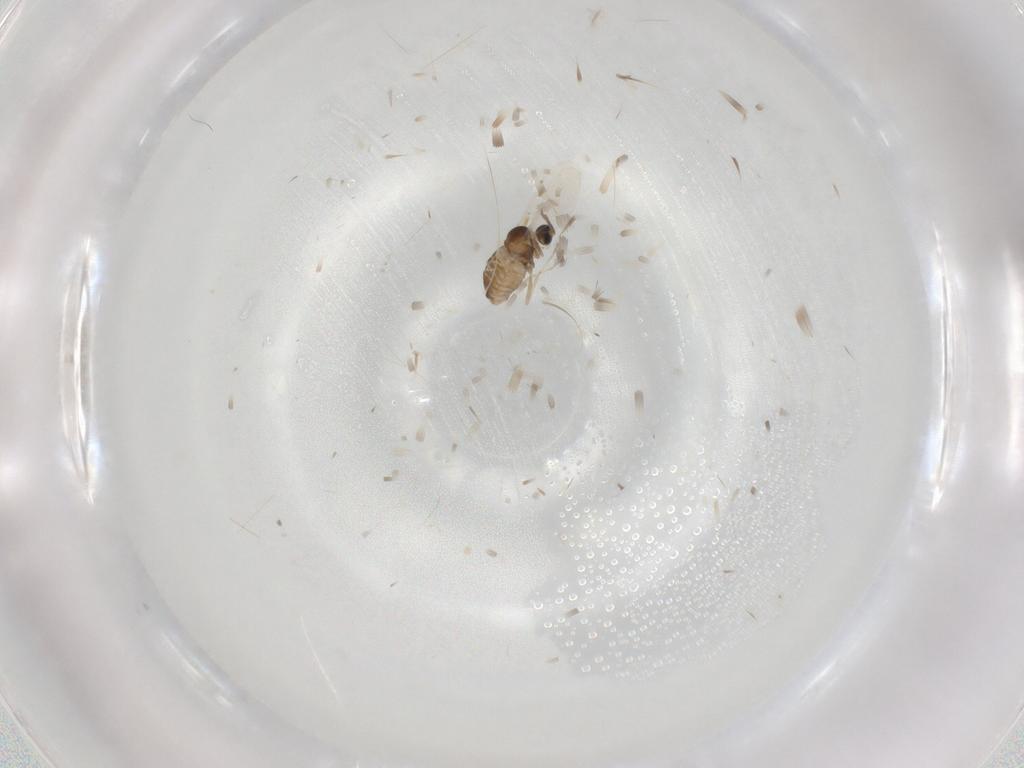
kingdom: Animalia
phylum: Arthropoda
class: Insecta
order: Diptera
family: Cecidomyiidae
